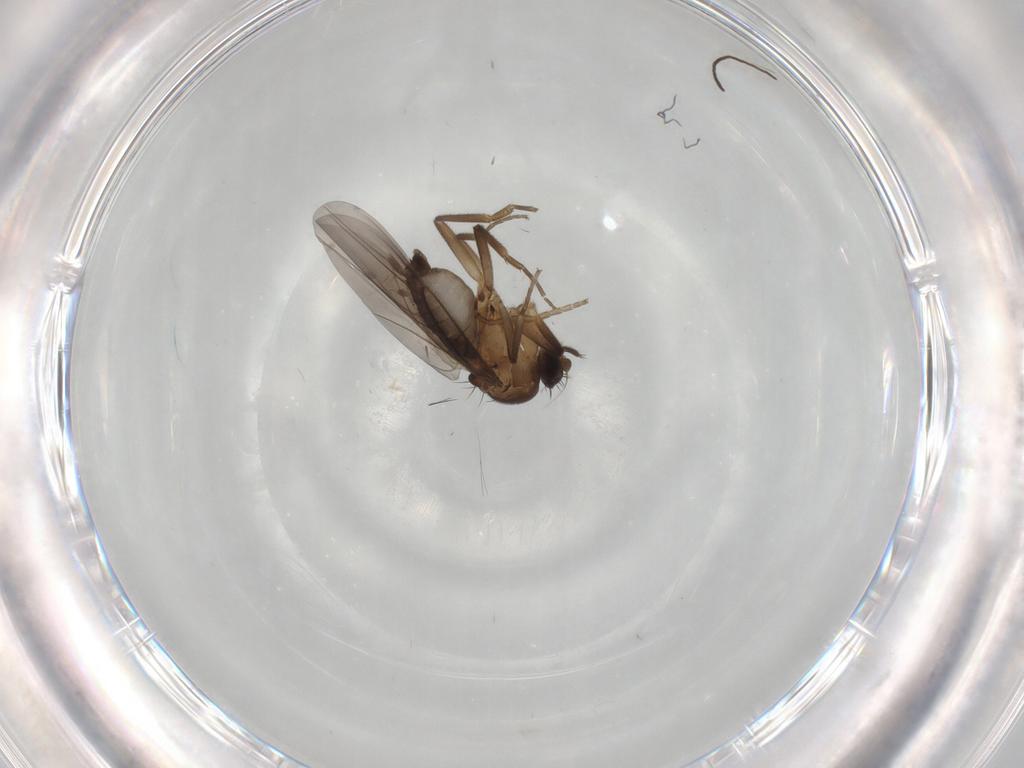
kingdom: Animalia
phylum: Arthropoda
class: Insecta
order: Diptera
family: Phoridae
